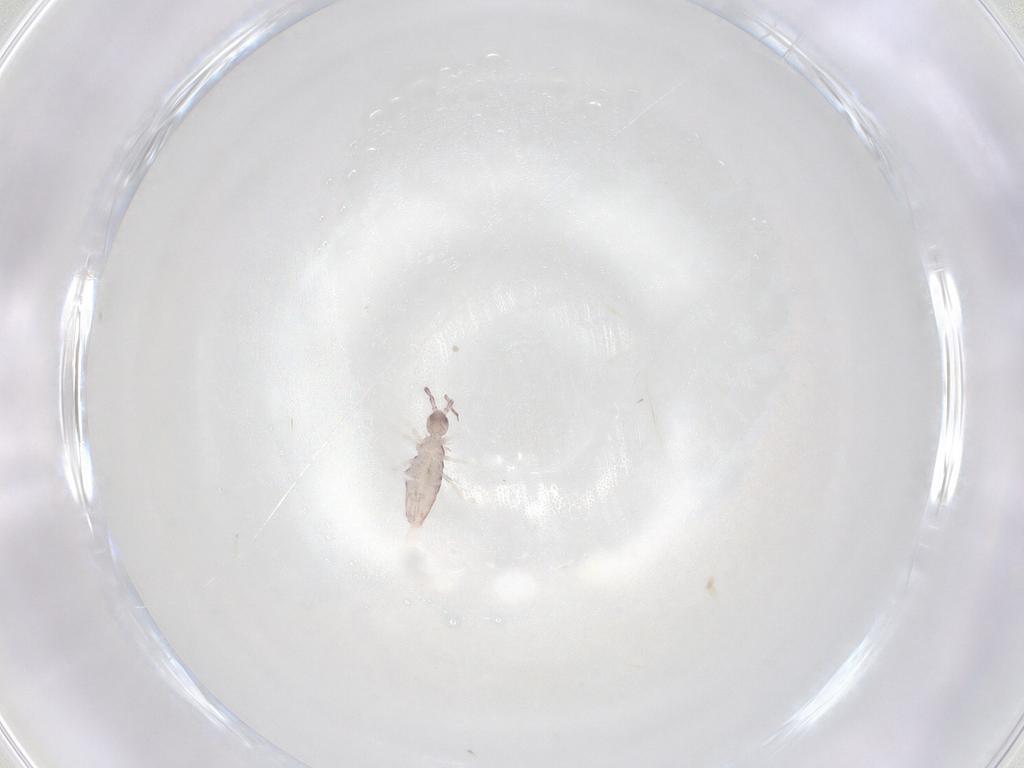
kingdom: Animalia
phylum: Arthropoda
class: Collembola
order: Entomobryomorpha
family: Entomobryidae
